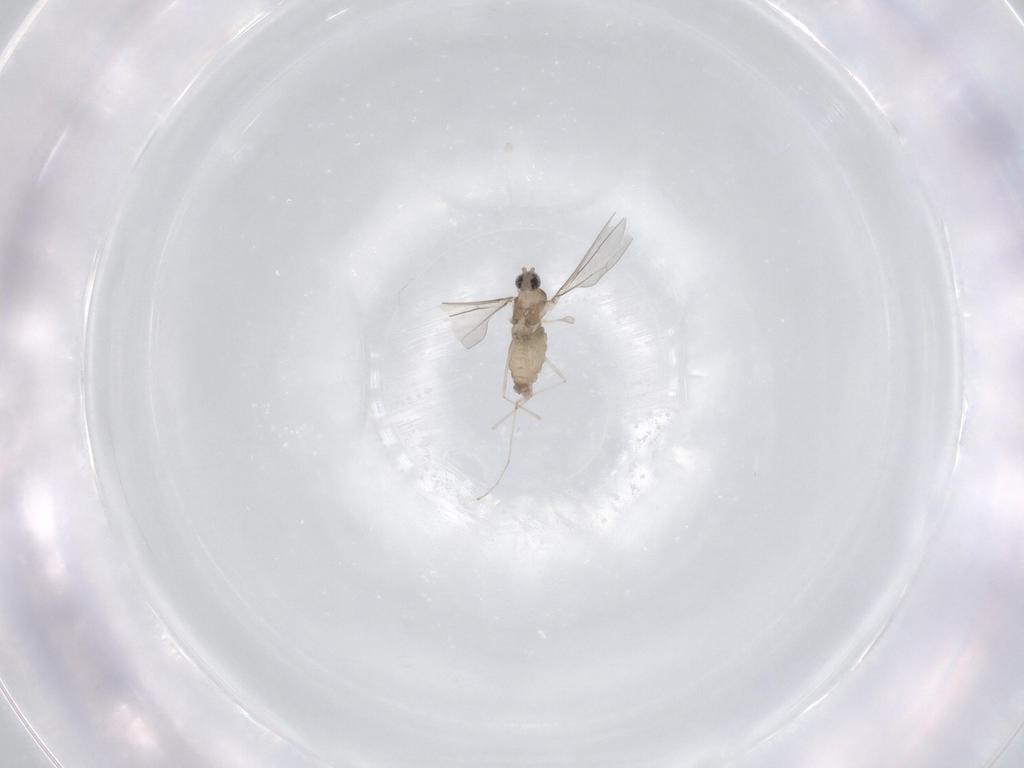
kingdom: Animalia
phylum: Arthropoda
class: Insecta
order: Diptera
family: Cecidomyiidae
